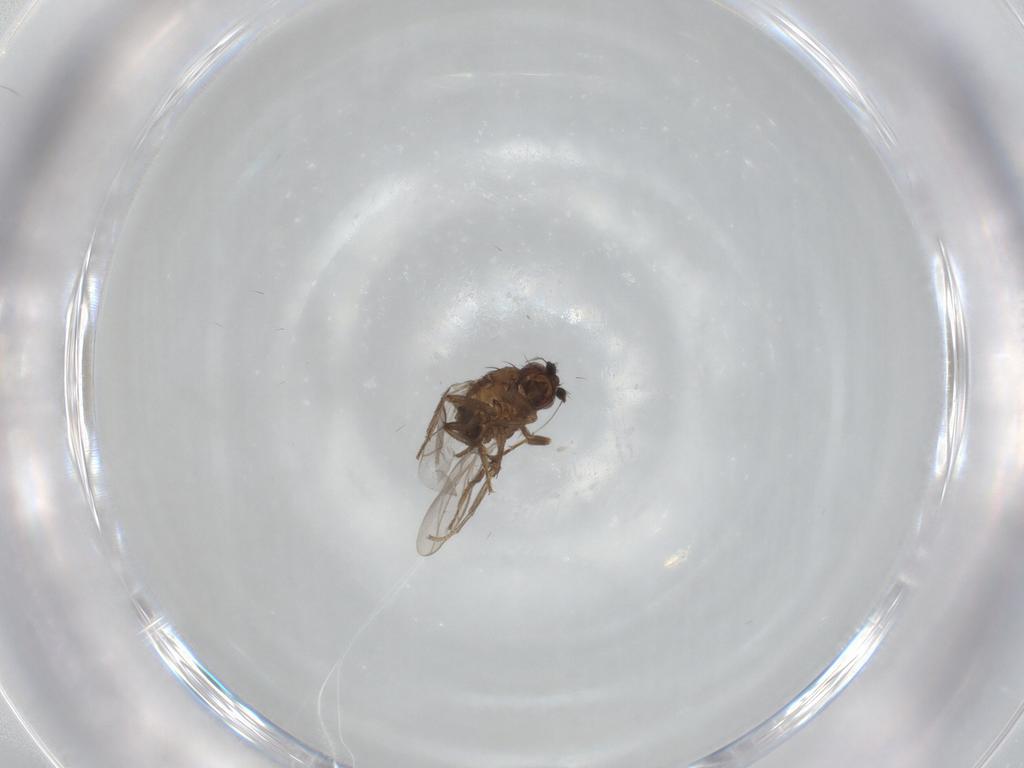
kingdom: Animalia
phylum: Arthropoda
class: Insecta
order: Diptera
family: Sphaeroceridae
